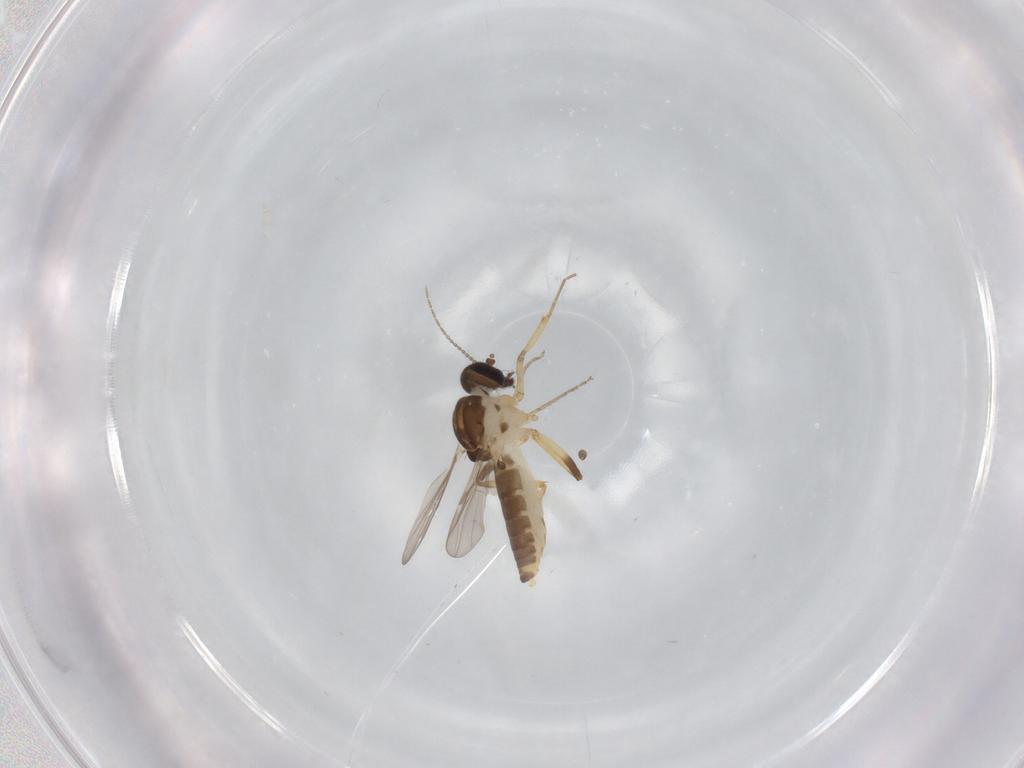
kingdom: Animalia
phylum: Arthropoda
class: Insecta
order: Diptera
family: Ceratopogonidae
